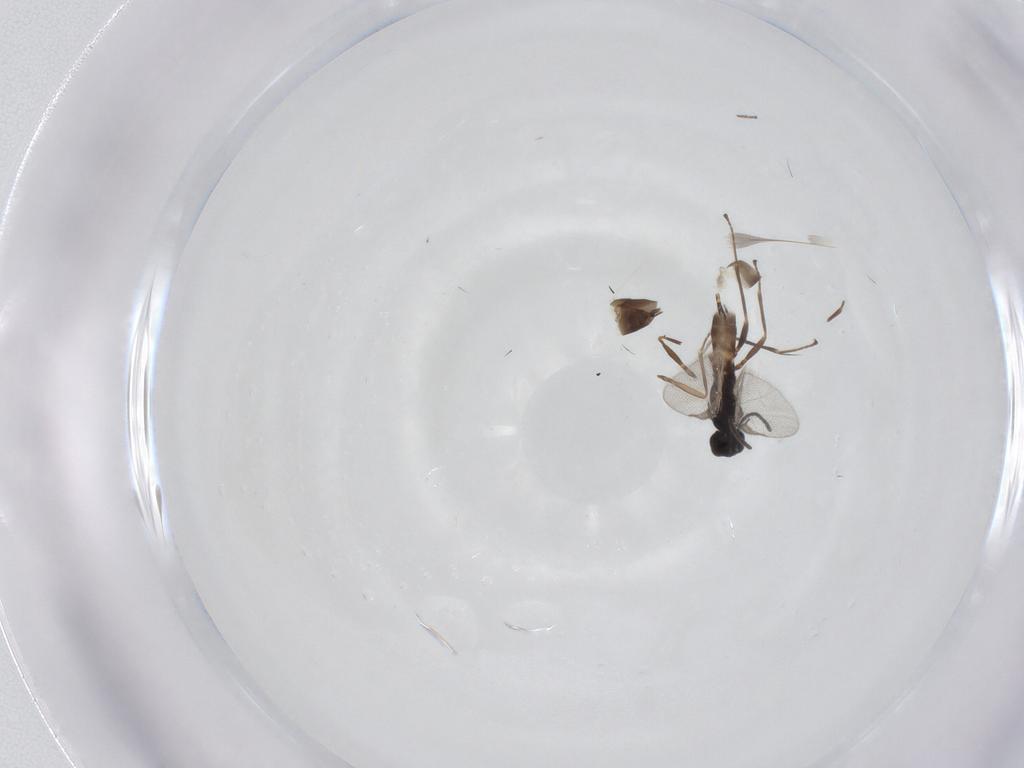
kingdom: Animalia
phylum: Arthropoda
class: Insecta
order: Hymenoptera
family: Braconidae
